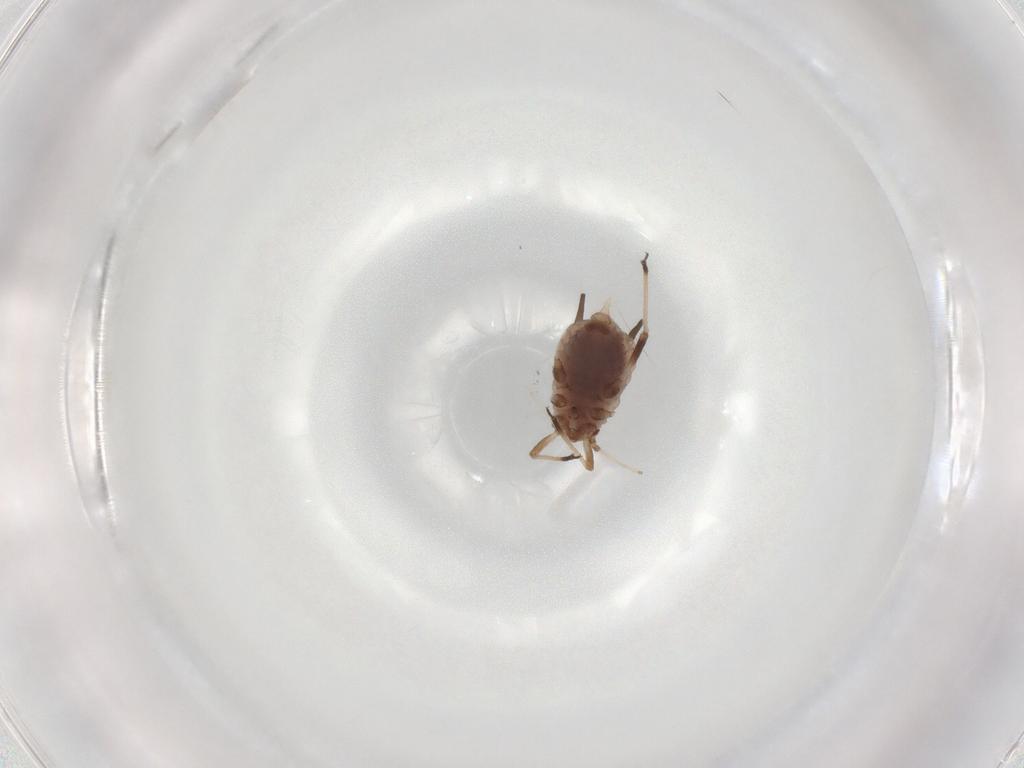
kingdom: Animalia
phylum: Arthropoda
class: Insecta
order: Hemiptera
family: Aphididae
